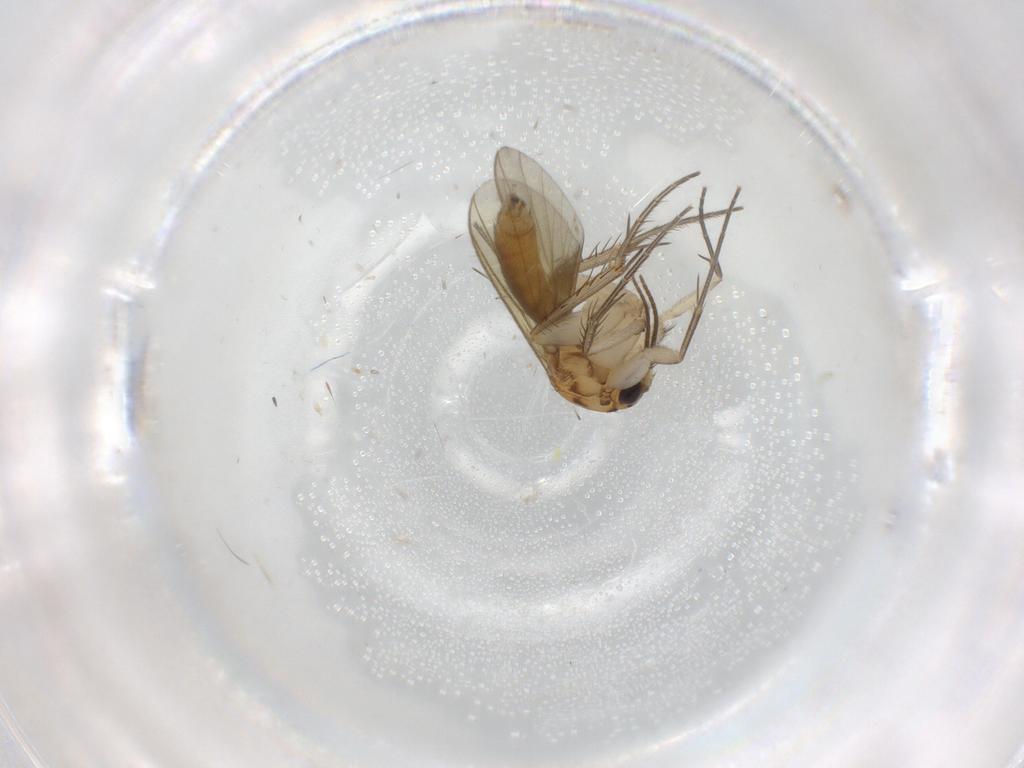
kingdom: Animalia
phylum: Arthropoda
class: Insecta
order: Diptera
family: Mycetophilidae
